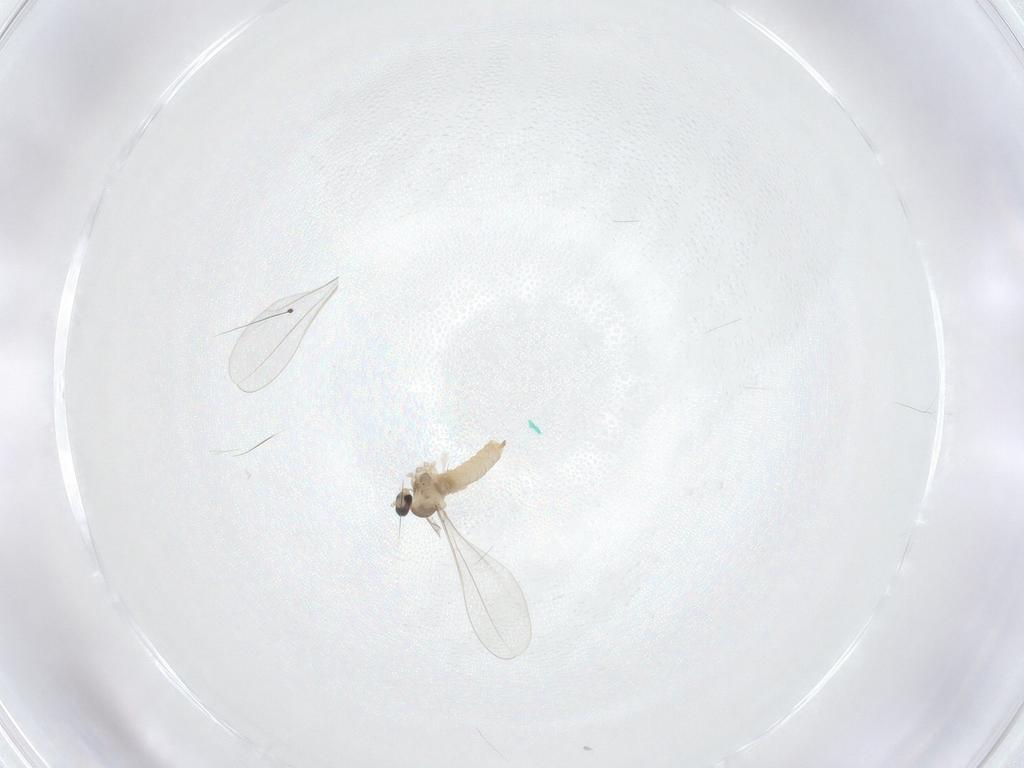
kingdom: Animalia
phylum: Arthropoda
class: Insecta
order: Diptera
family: Cecidomyiidae
